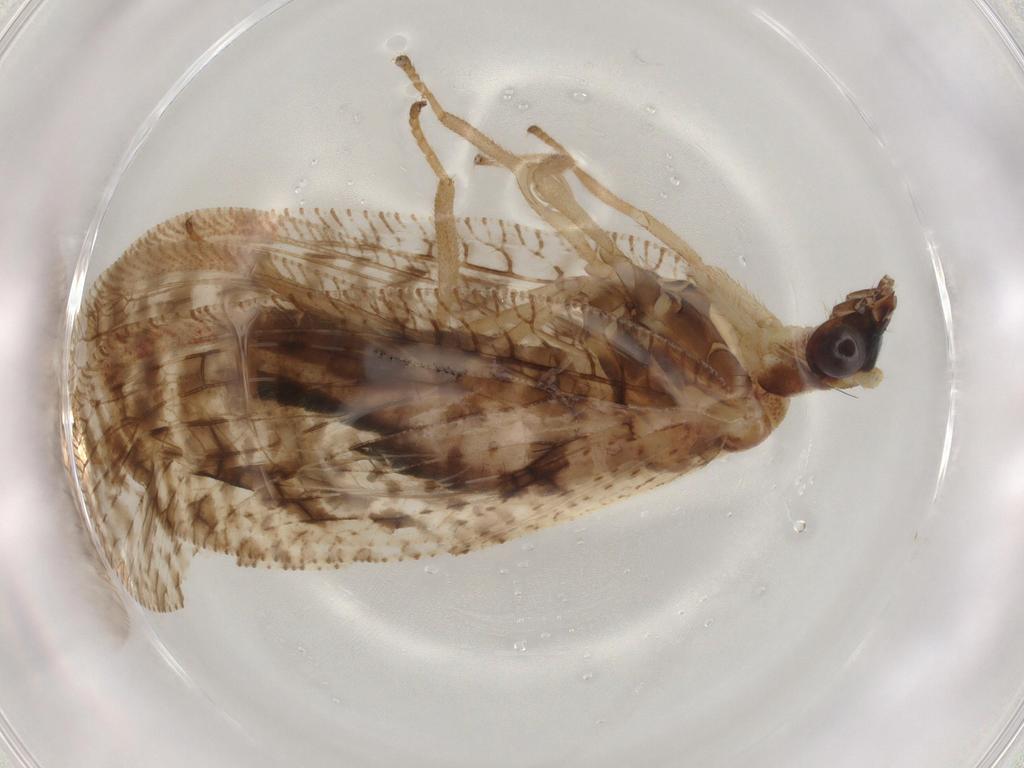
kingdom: Animalia
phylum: Arthropoda
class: Insecta
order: Neuroptera
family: Hemerobiidae
